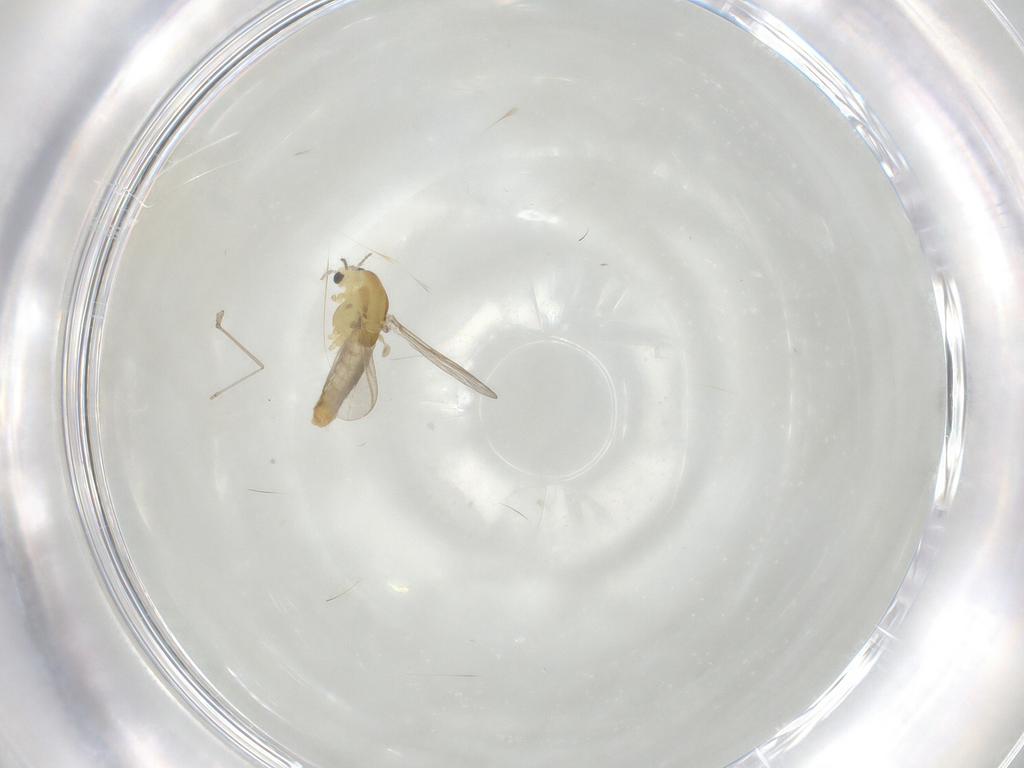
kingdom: Animalia
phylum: Arthropoda
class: Insecta
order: Diptera
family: Chironomidae
